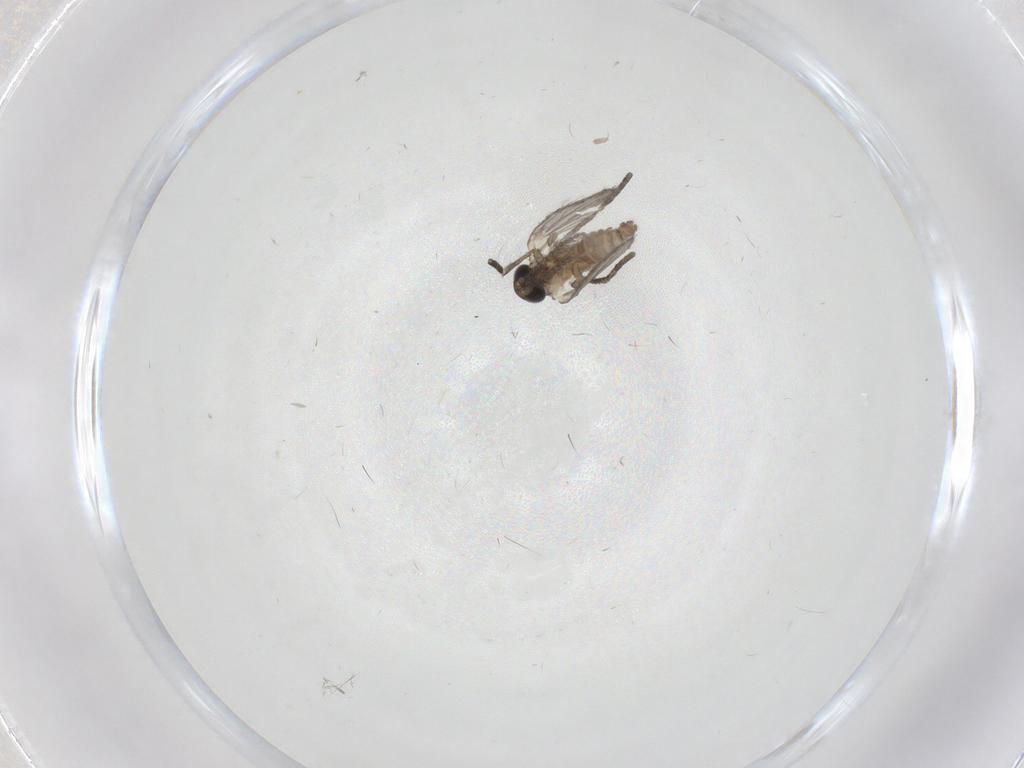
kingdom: Animalia
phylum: Arthropoda
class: Insecta
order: Diptera
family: Psychodidae
